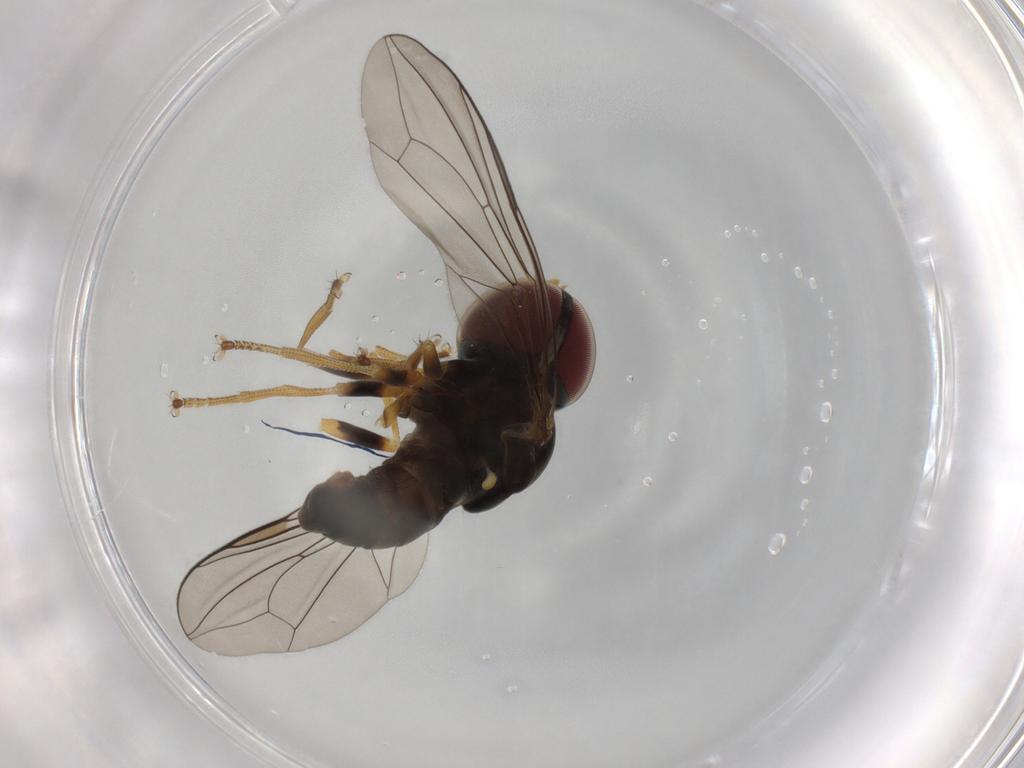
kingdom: Animalia
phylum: Arthropoda
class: Insecta
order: Diptera
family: Pipunculidae
